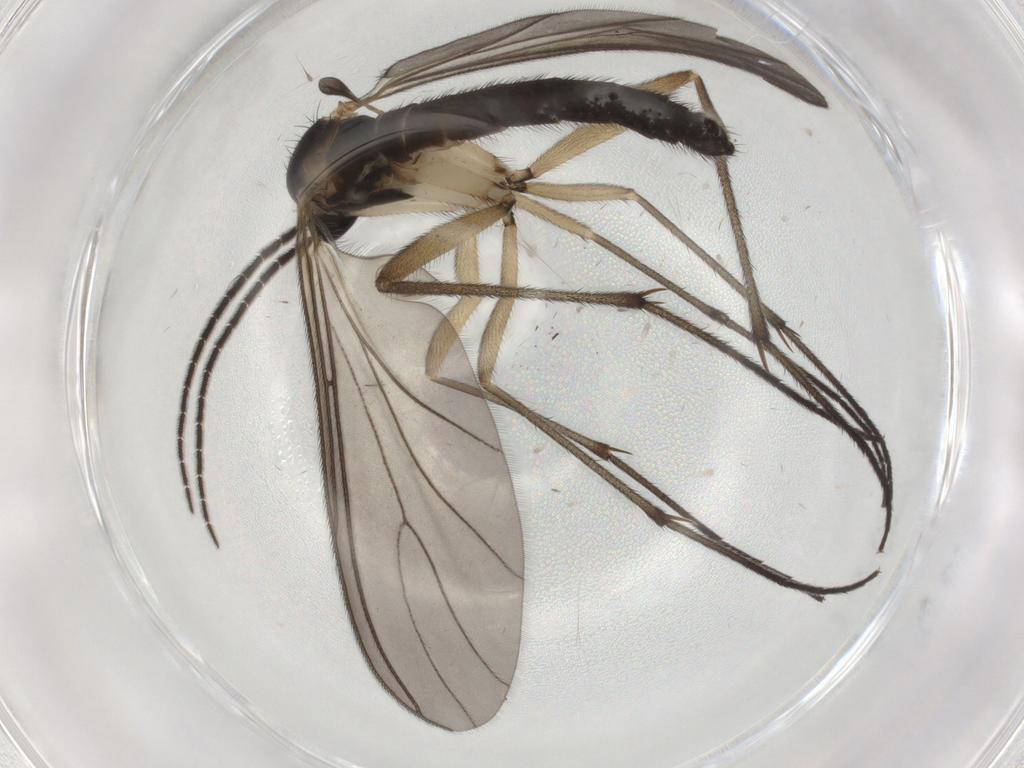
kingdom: Animalia
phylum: Arthropoda
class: Insecta
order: Diptera
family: Sciaridae
